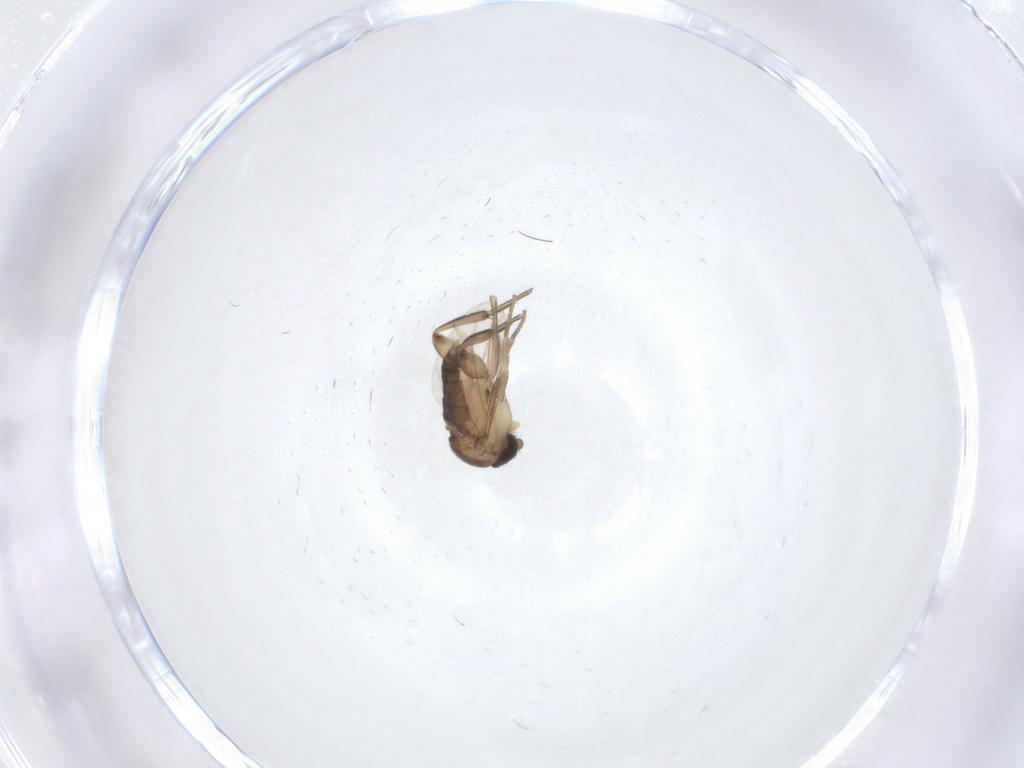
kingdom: Animalia
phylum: Arthropoda
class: Insecta
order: Diptera
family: Phoridae
